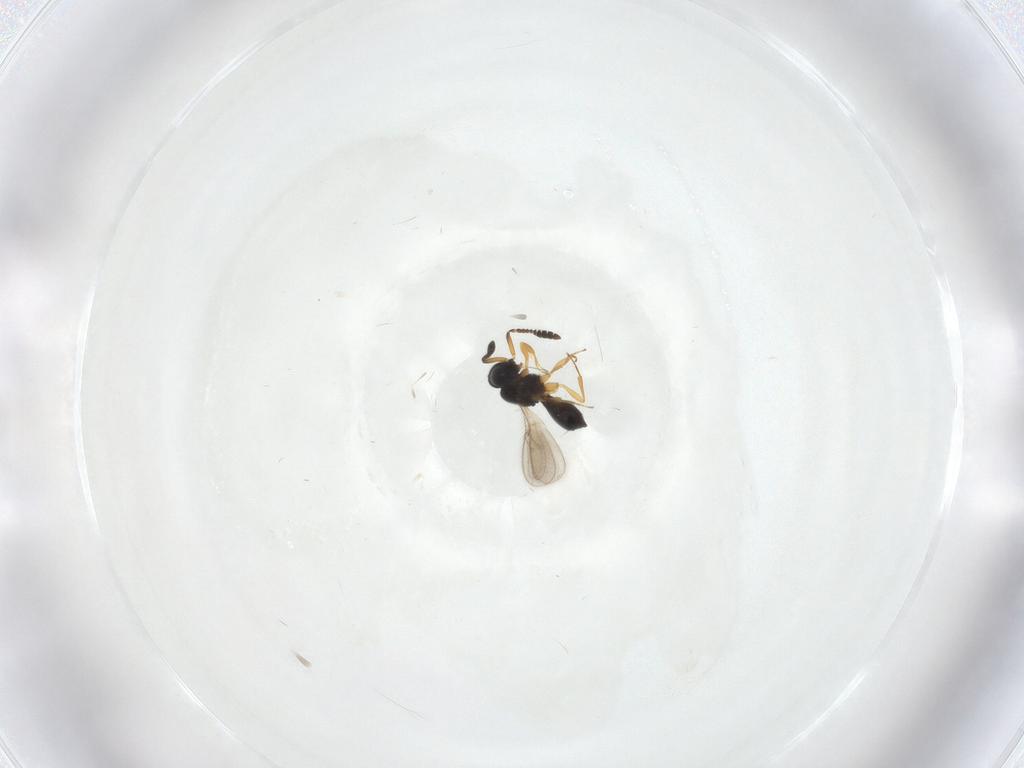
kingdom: Animalia
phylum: Arthropoda
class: Insecta
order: Hymenoptera
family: Scelionidae
